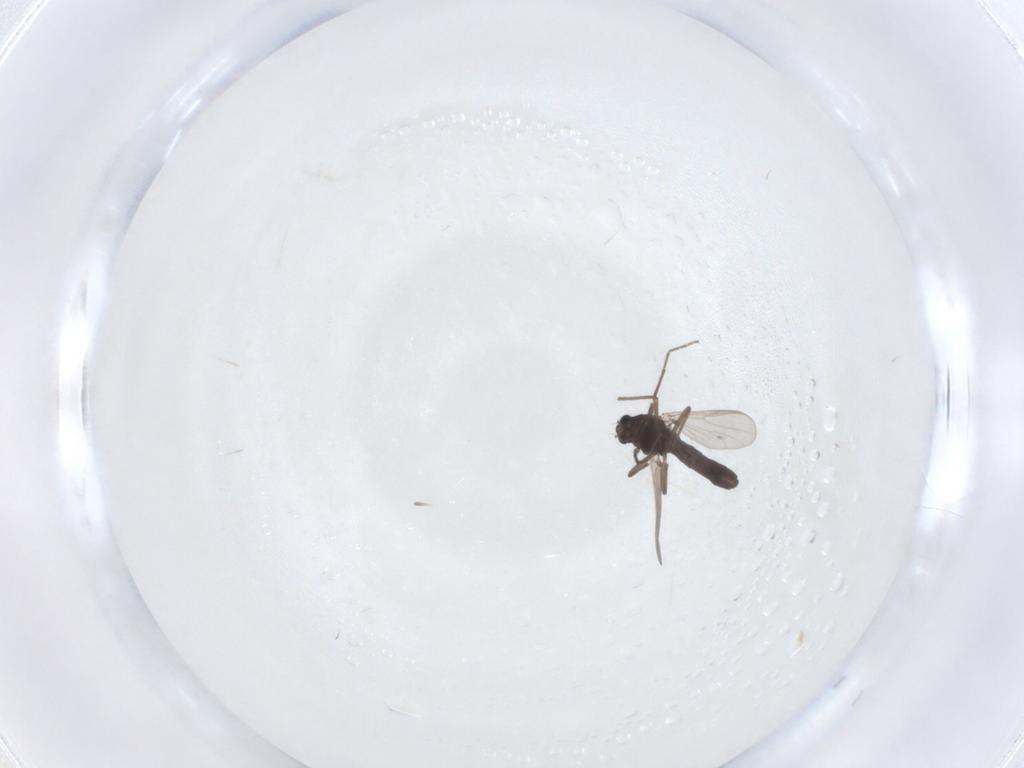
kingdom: Animalia
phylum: Arthropoda
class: Insecta
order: Diptera
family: Chironomidae
